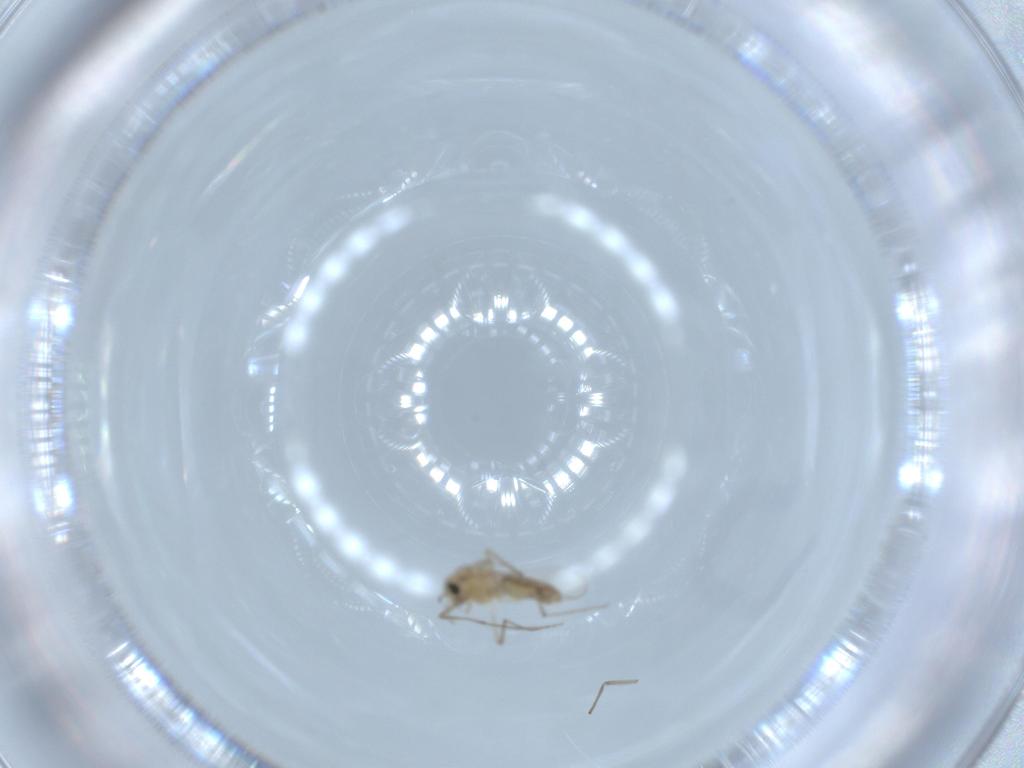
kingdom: Animalia
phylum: Arthropoda
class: Insecta
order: Diptera
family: Chironomidae
